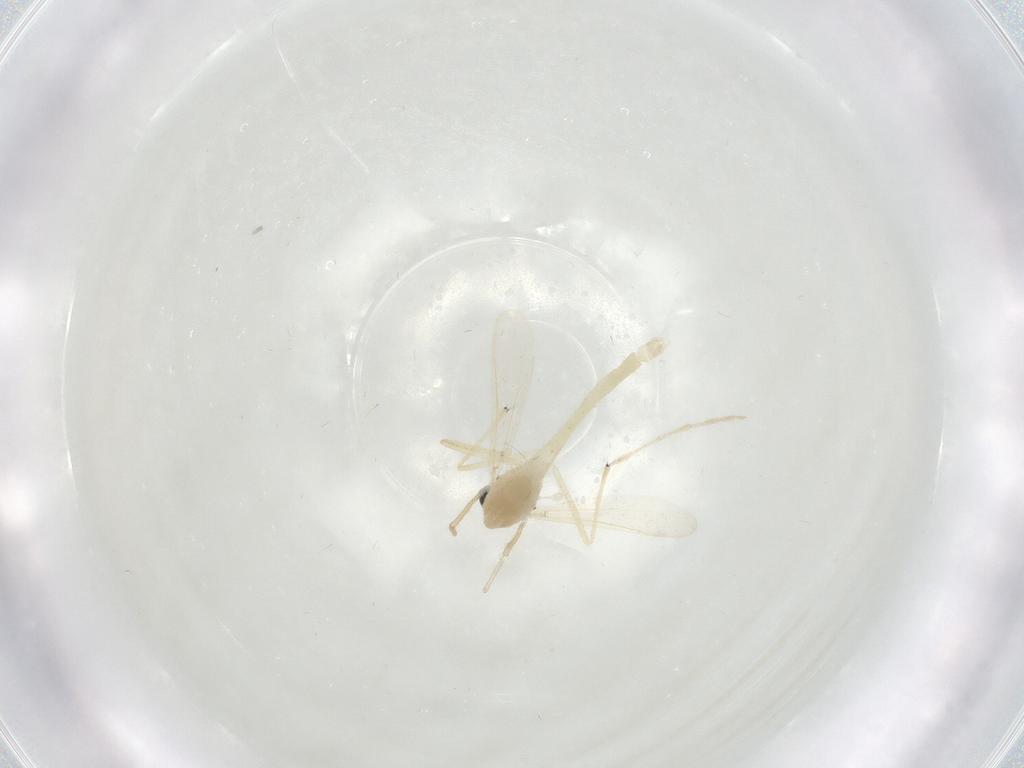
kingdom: Animalia
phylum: Arthropoda
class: Insecta
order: Diptera
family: Chironomidae
